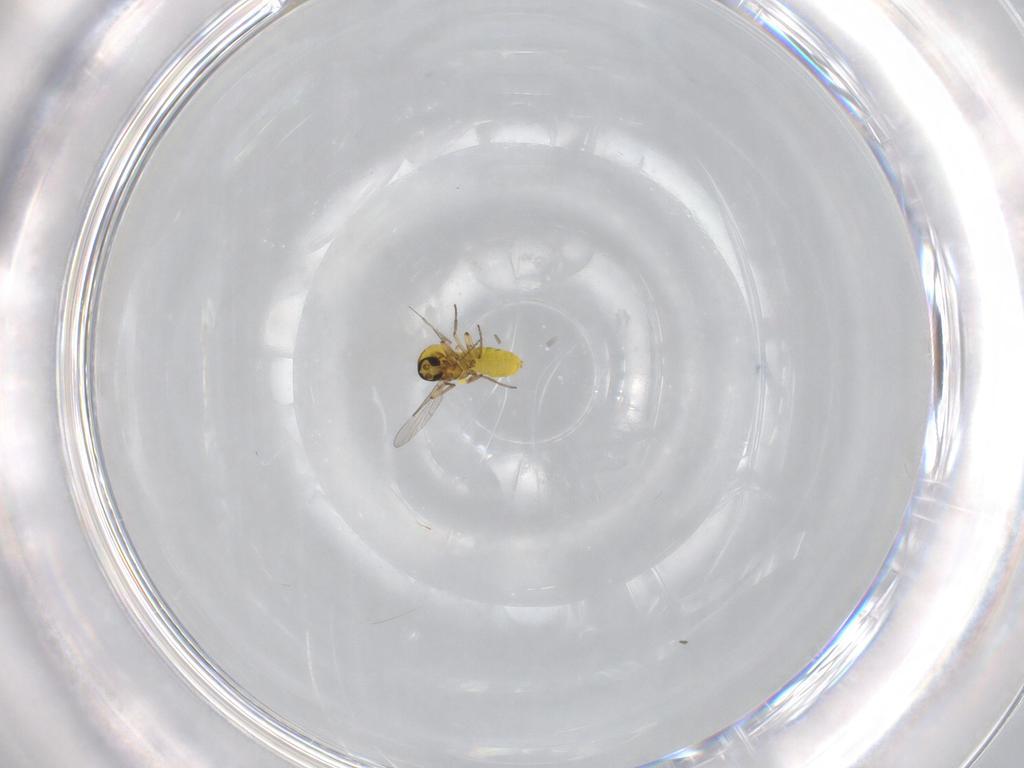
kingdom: Animalia
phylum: Arthropoda
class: Insecta
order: Diptera
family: Ceratopogonidae
